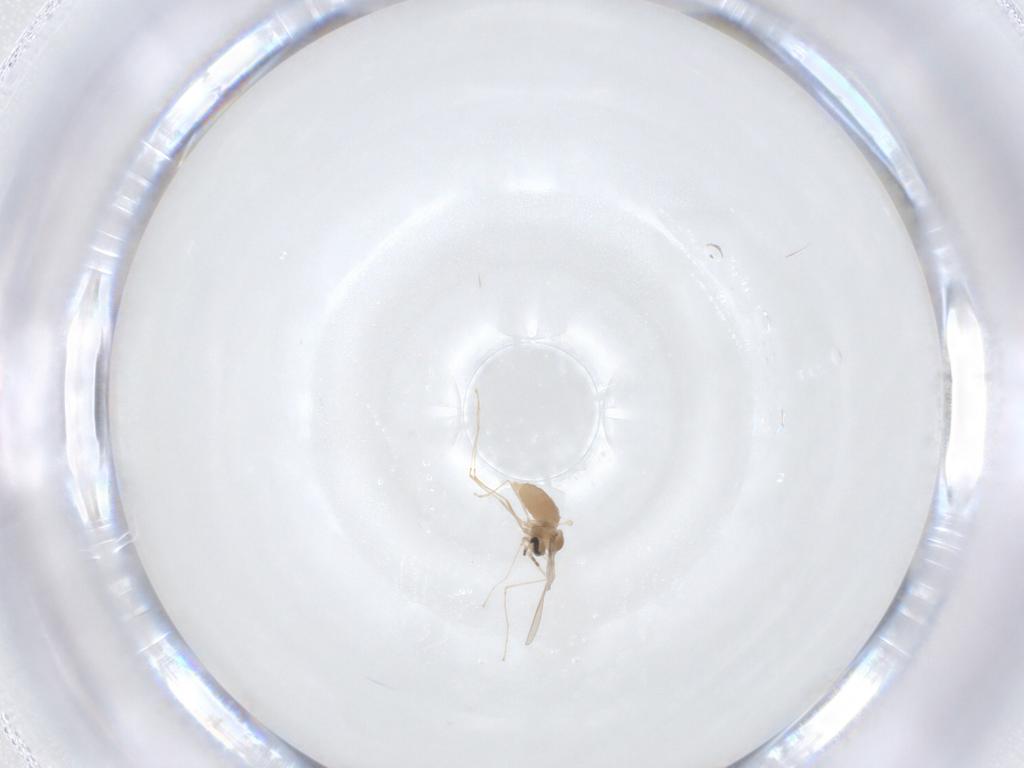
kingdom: Animalia
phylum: Arthropoda
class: Insecta
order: Diptera
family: Cecidomyiidae
